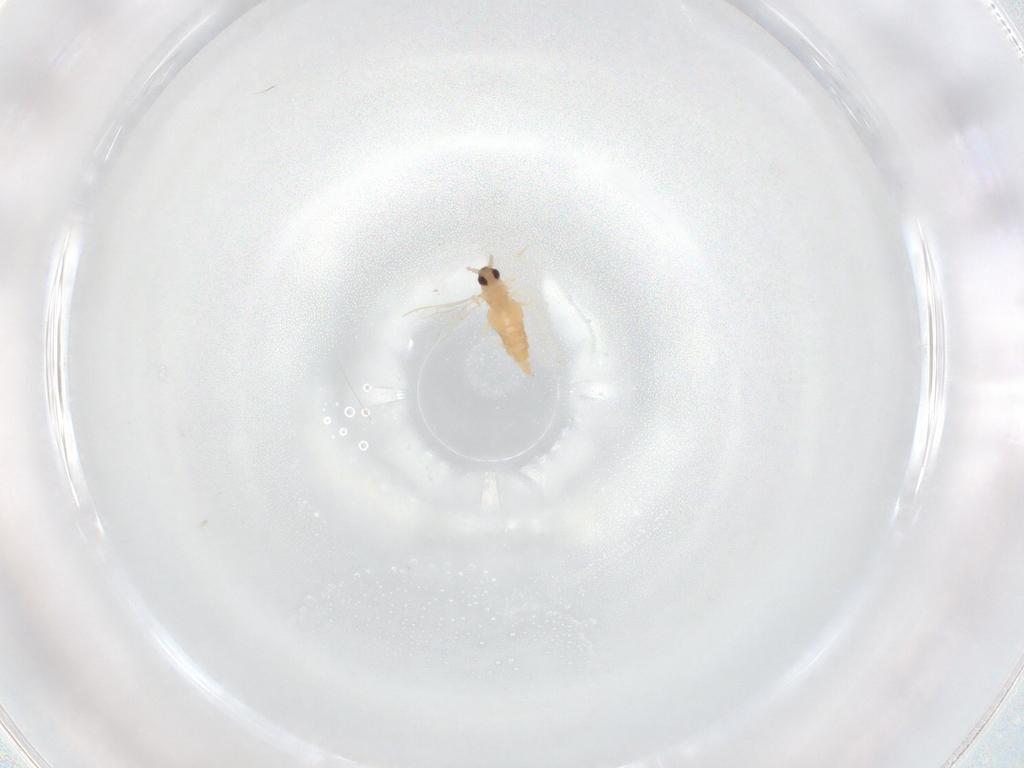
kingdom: Animalia
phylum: Arthropoda
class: Insecta
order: Diptera
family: Cecidomyiidae
